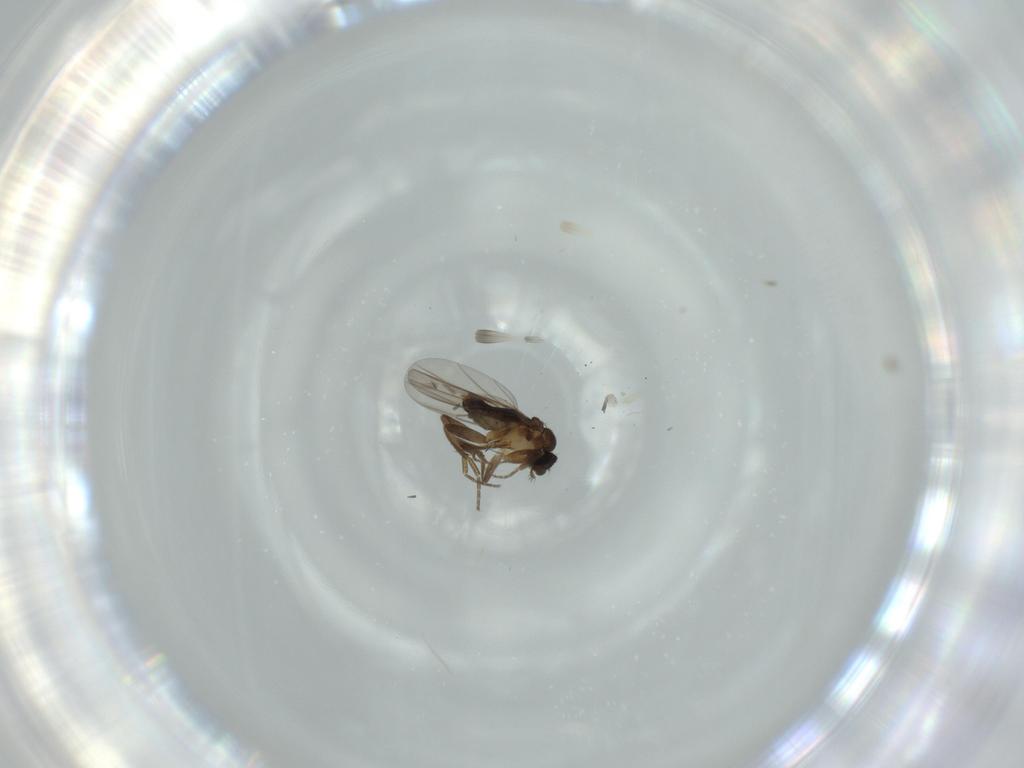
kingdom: Animalia
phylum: Arthropoda
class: Insecta
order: Diptera
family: Phoridae
